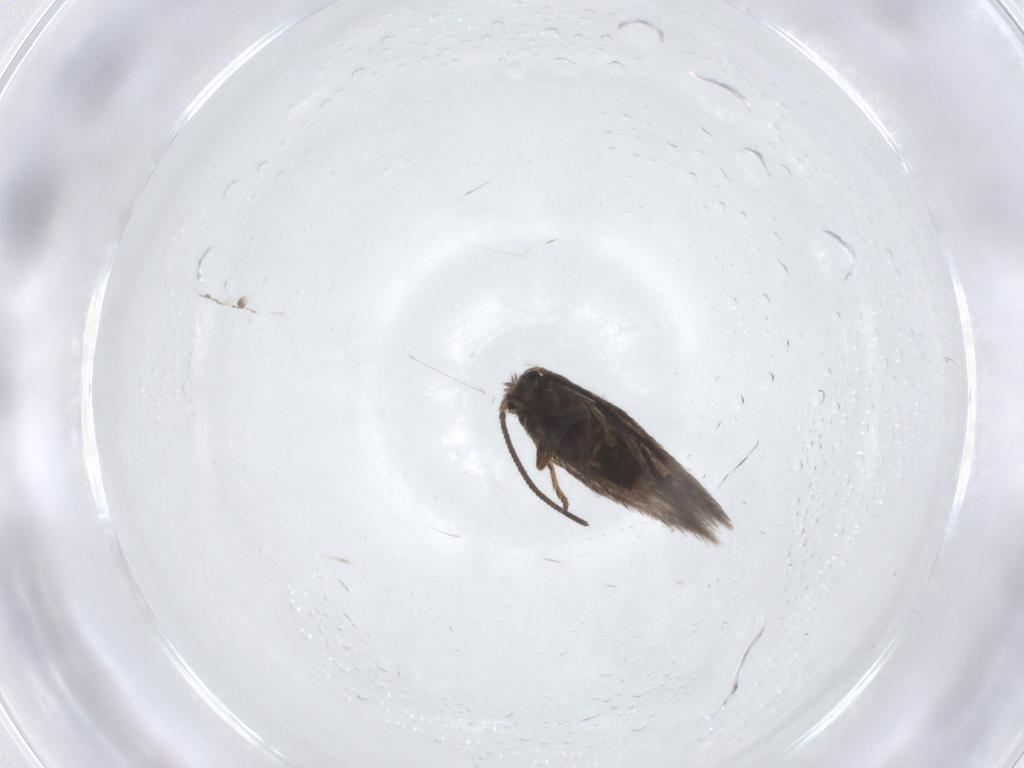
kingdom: Animalia
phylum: Arthropoda
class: Insecta
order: Lepidoptera
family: Nepticulidae
